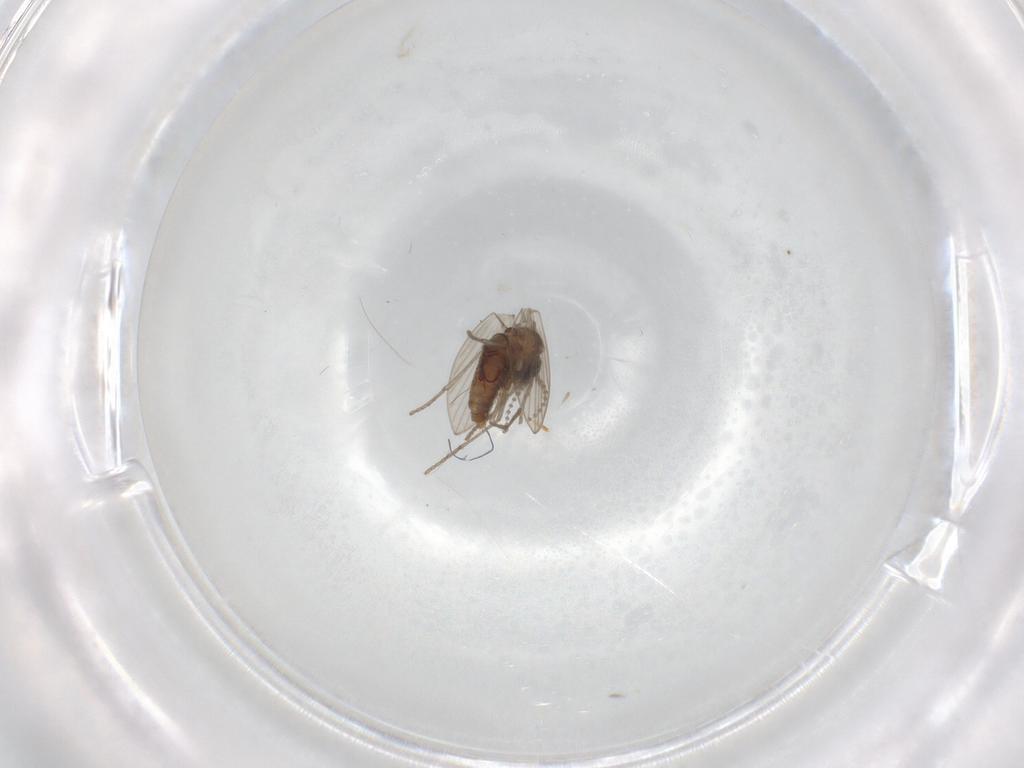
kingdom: Animalia
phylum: Arthropoda
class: Insecta
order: Diptera
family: Psychodidae
